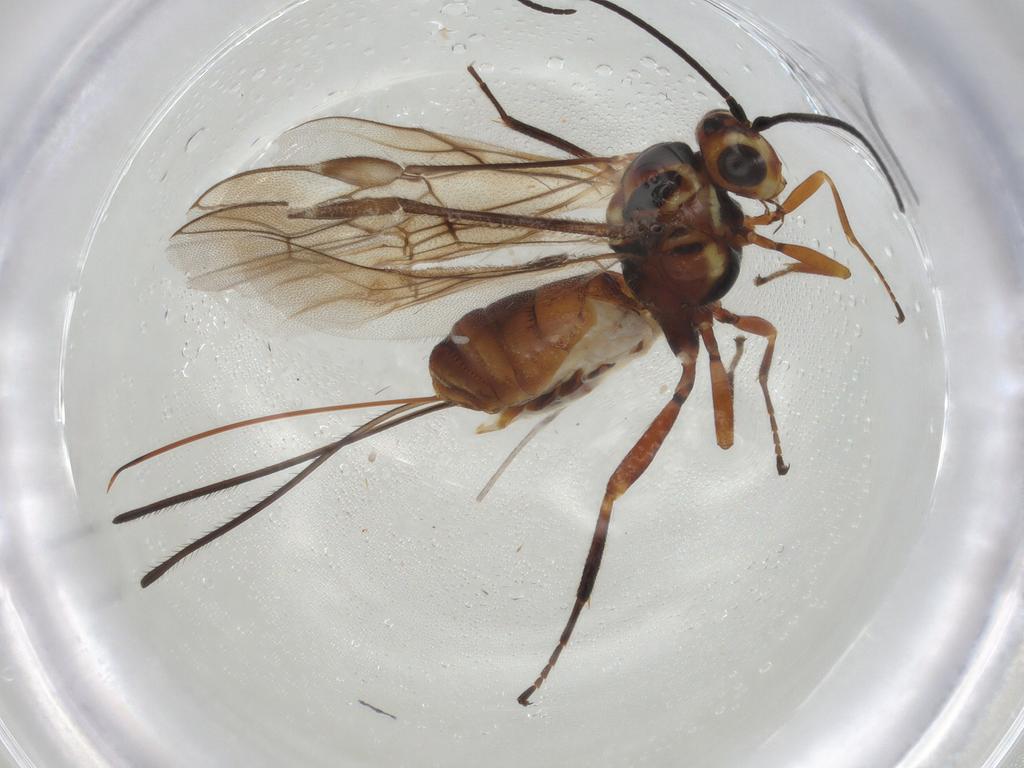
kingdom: Animalia
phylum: Arthropoda
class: Insecta
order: Hymenoptera
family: Braconidae
